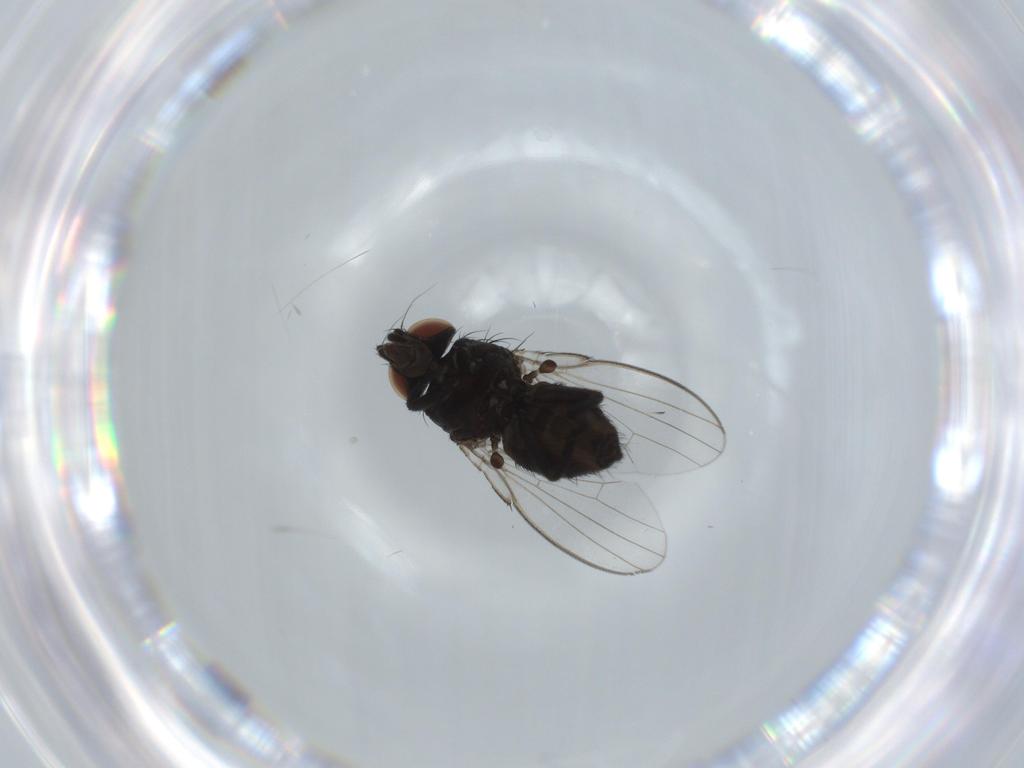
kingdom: Animalia
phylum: Arthropoda
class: Insecta
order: Diptera
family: Milichiidae
